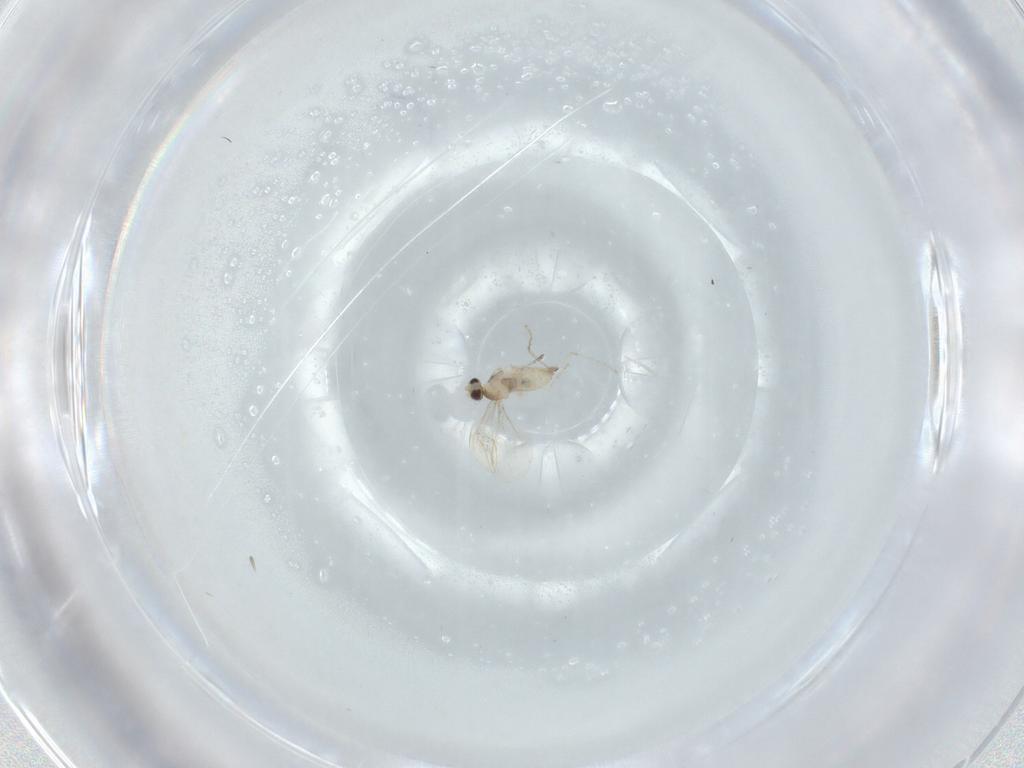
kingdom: Animalia
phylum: Arthropoda
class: Insecta
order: Diptera
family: Cecidomyiidae
